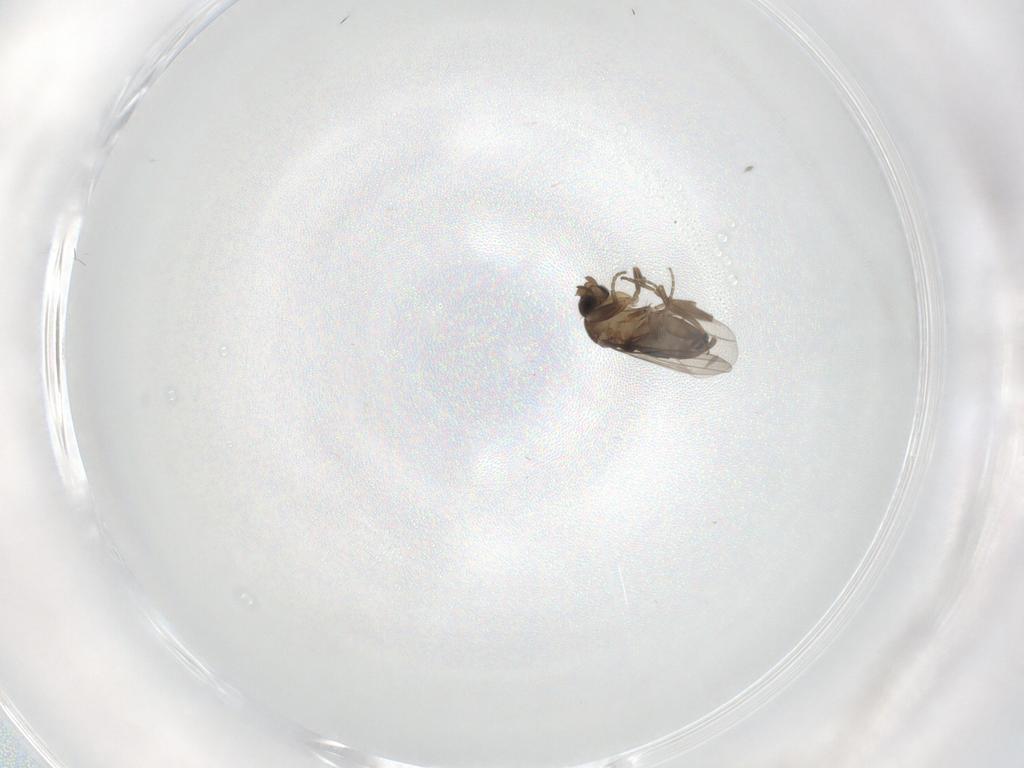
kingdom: Animalia
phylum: Arthropoda
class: Insecta
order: Diptera
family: Phoridae
